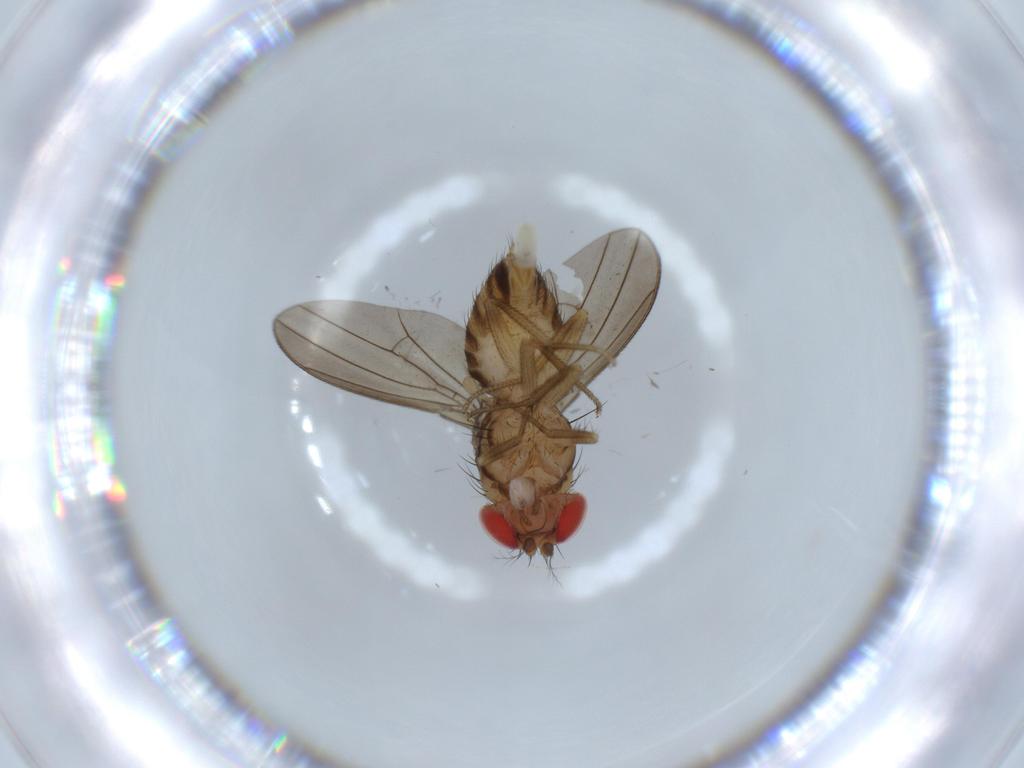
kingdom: Animalia
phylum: Arthropoda
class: Insecta
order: Diptera
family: Drosophilidae
